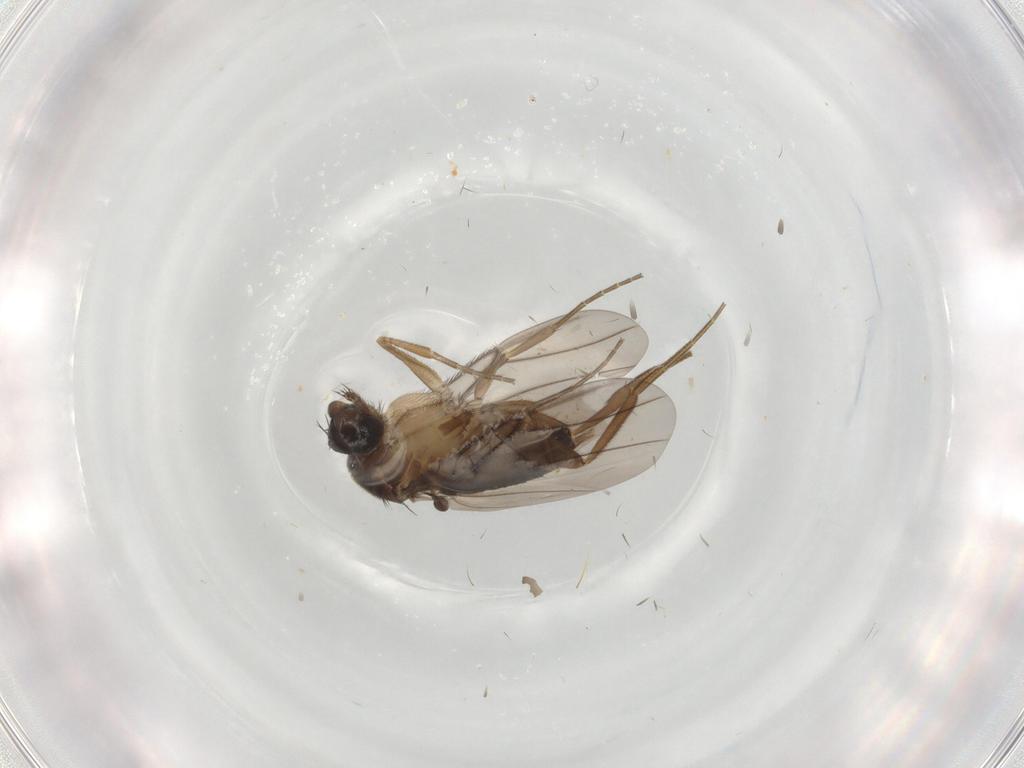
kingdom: Animalia
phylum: Arthropoda
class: Insecta
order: Diptera
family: Phoridae
